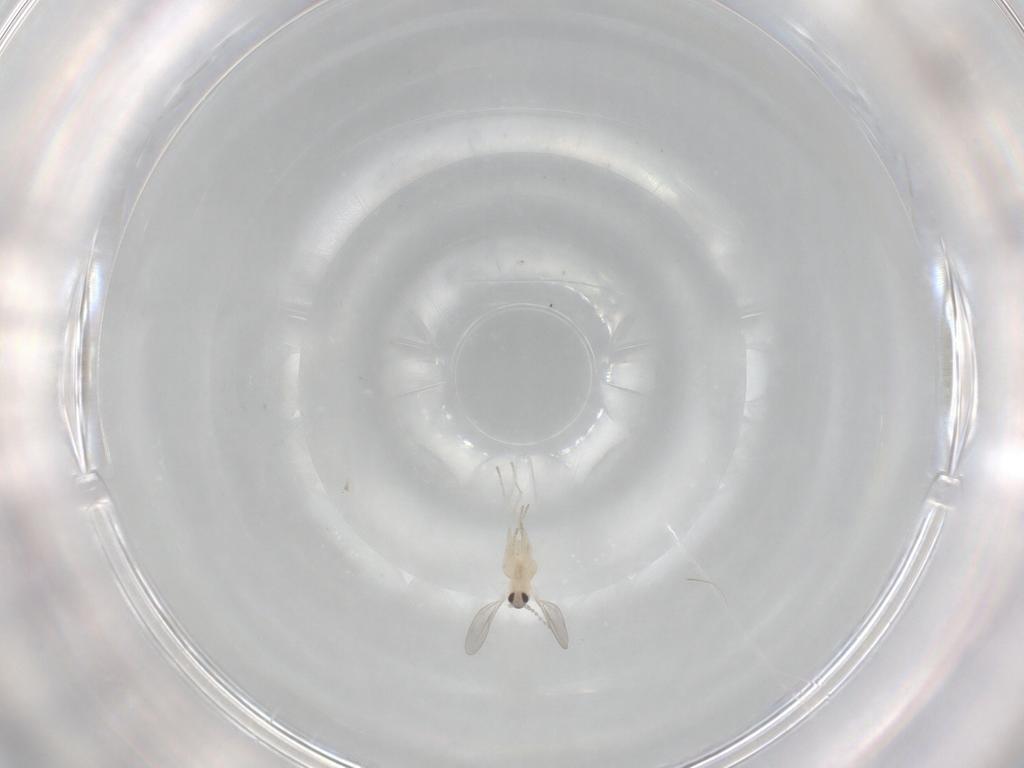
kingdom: Animalia
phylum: Arthropoda
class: Insecta
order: Diptera
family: Cecidomyiidae
